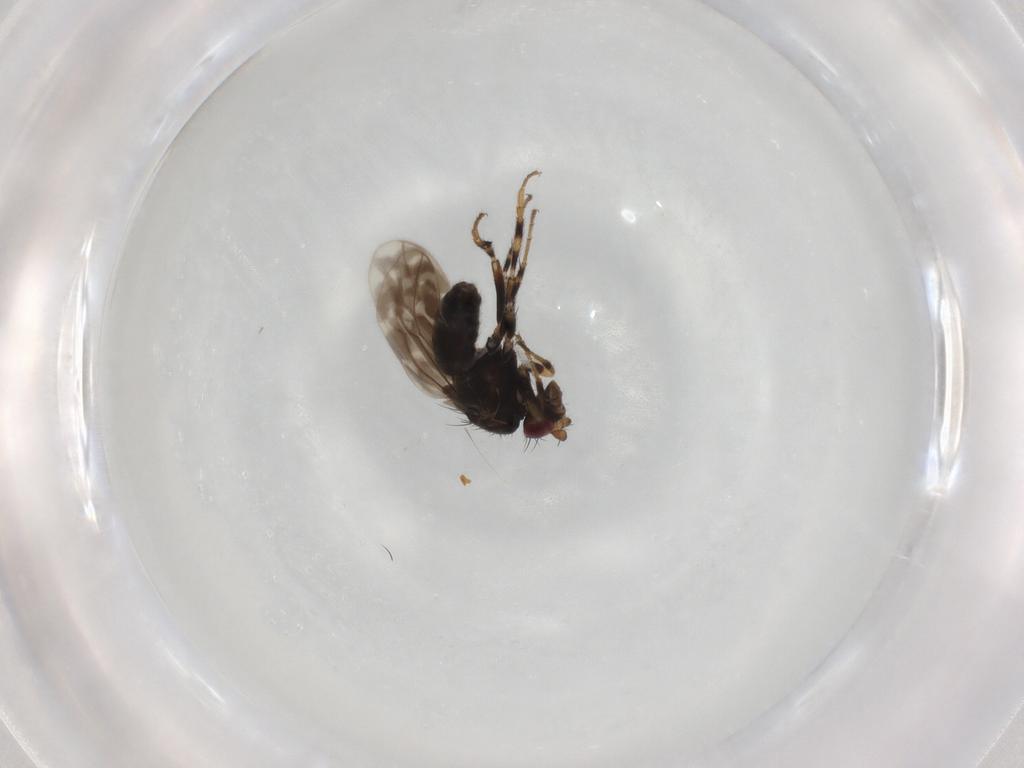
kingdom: Animalia
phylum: Arthropoda
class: Insecta
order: Diptera
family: Sphaeroceridae
